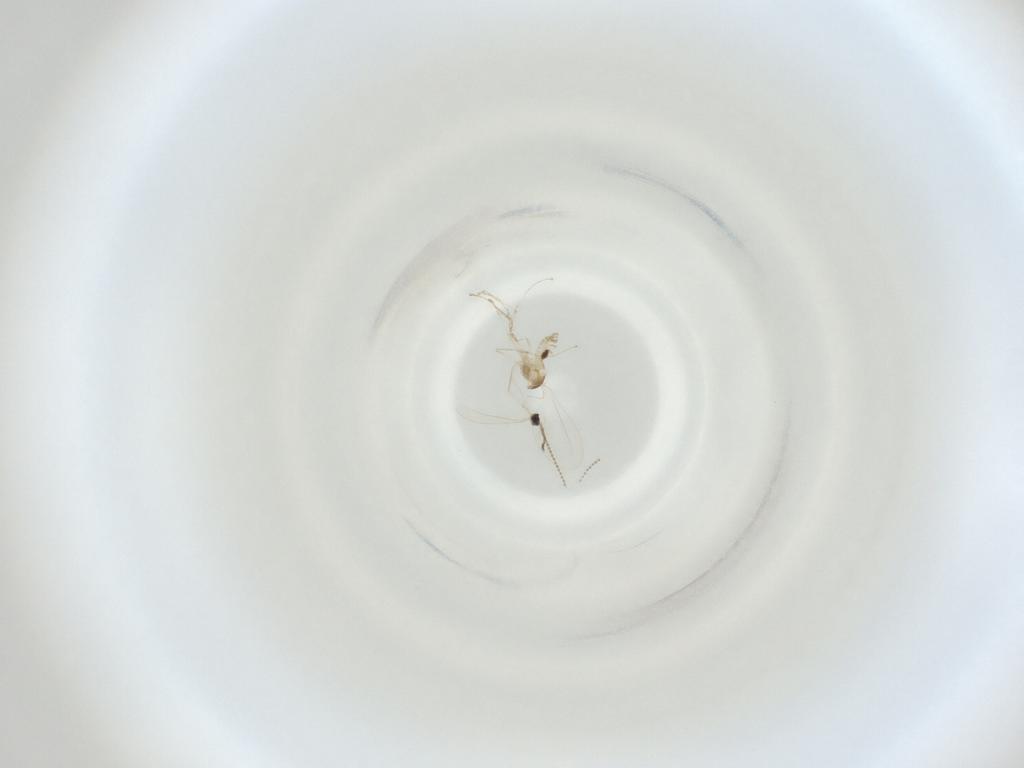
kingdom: Animalia
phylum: Arthropoda
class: Insecta
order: Diptera
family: Cecidomyiidae
